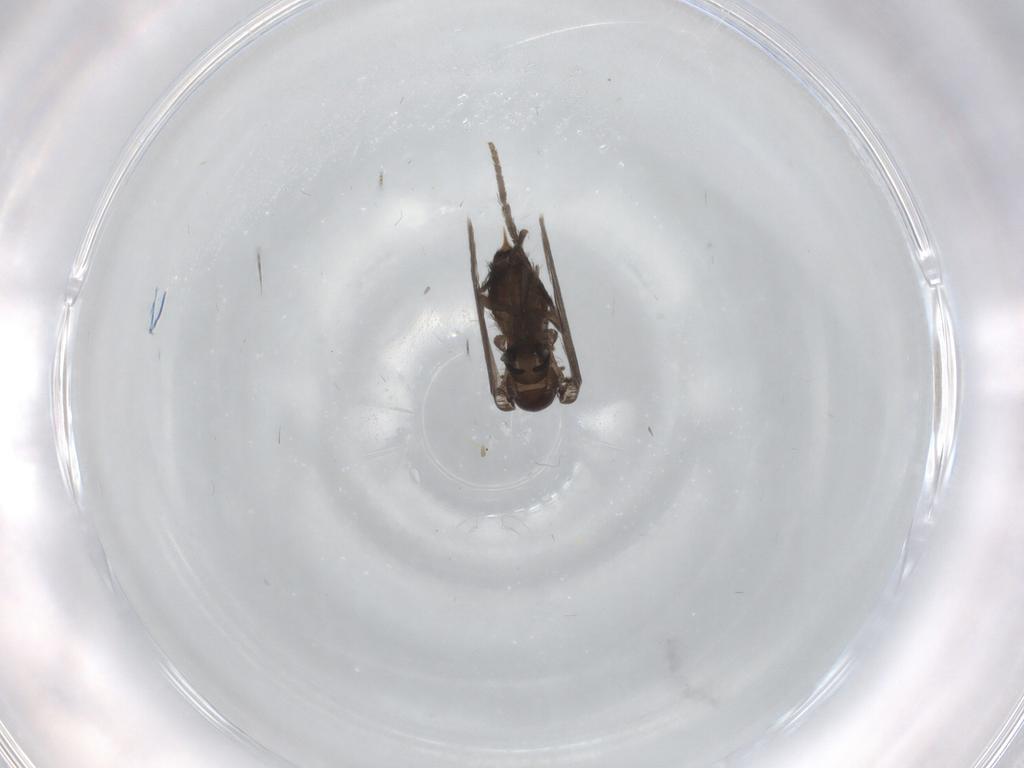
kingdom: Animalia
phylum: Arthropoda
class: Insecta
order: Diptera
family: Psychodidae
